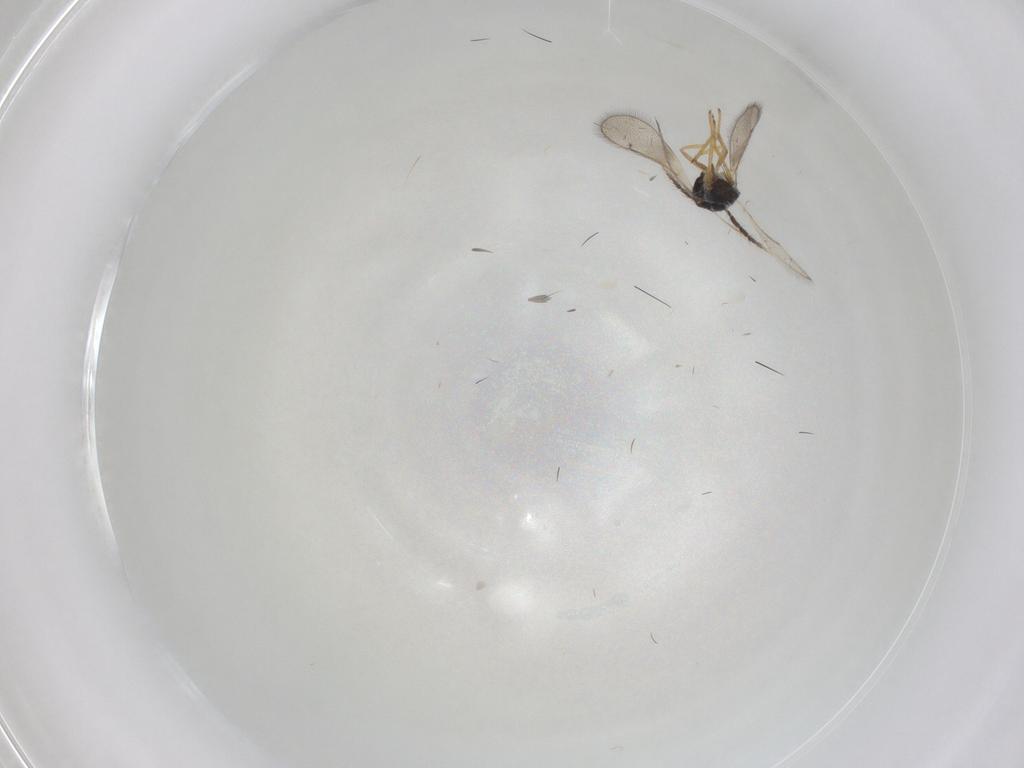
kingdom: Animalia
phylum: Arthropoda
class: Insecta
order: Hymenoptera
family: Eulophidae
